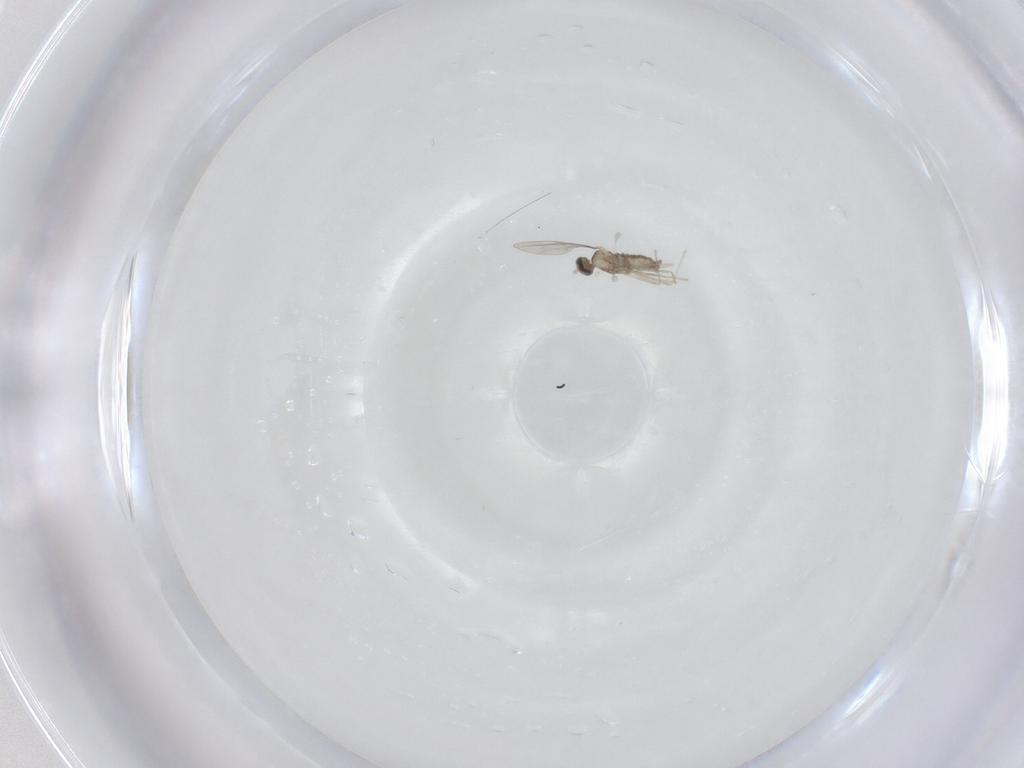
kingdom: Animalia
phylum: Arthropoda
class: Insecta
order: Diptera
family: Cecidomyiidae
